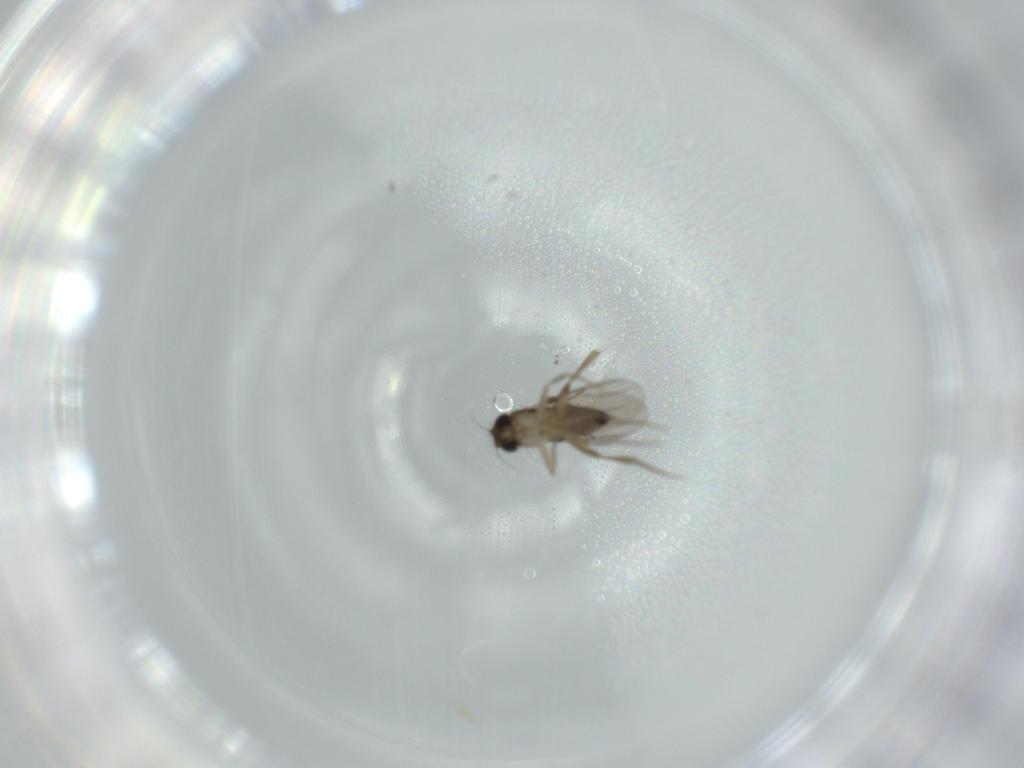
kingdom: Animalia
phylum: Arthropoda
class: Insecta
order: Diptera
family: Phoridae
